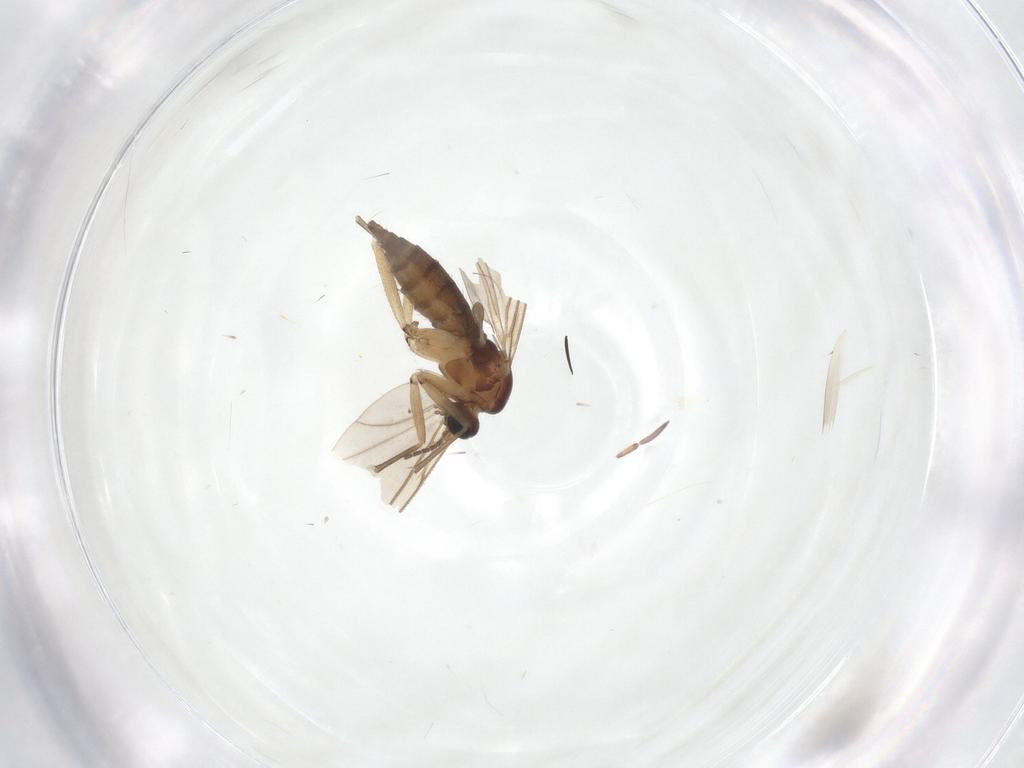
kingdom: Animalia
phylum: Arthropoda
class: Insecta
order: Diptera
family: Sciaridae
